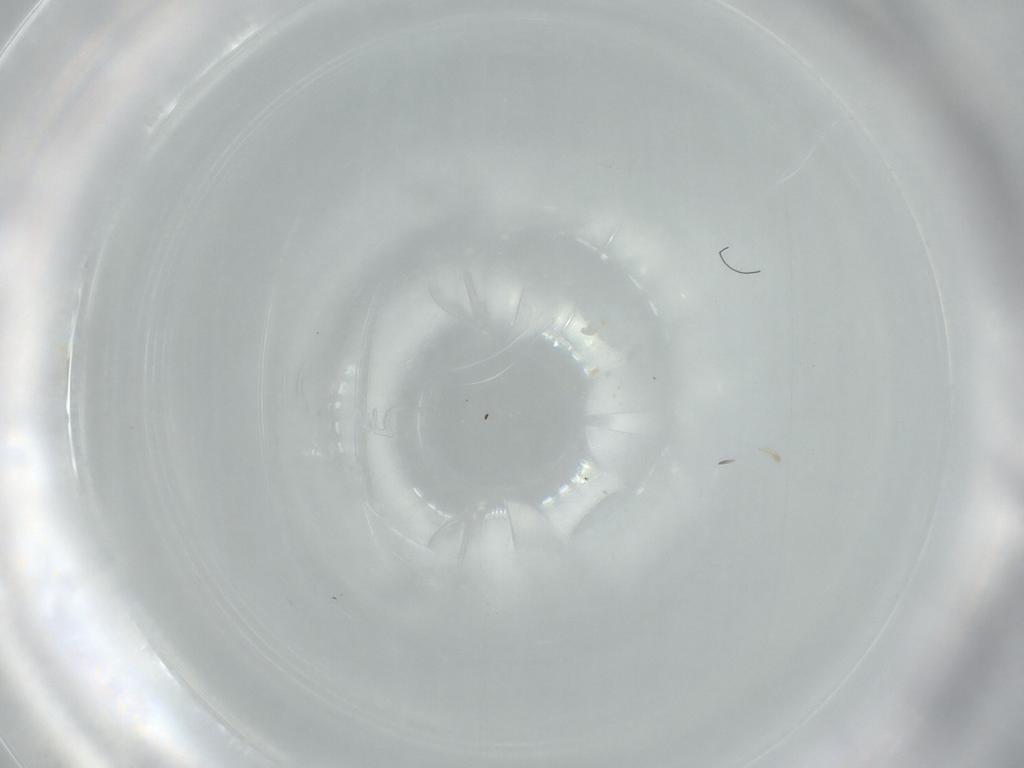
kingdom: Animalia
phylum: Arthropoda
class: Insecta
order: Diptera
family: Phoridae
